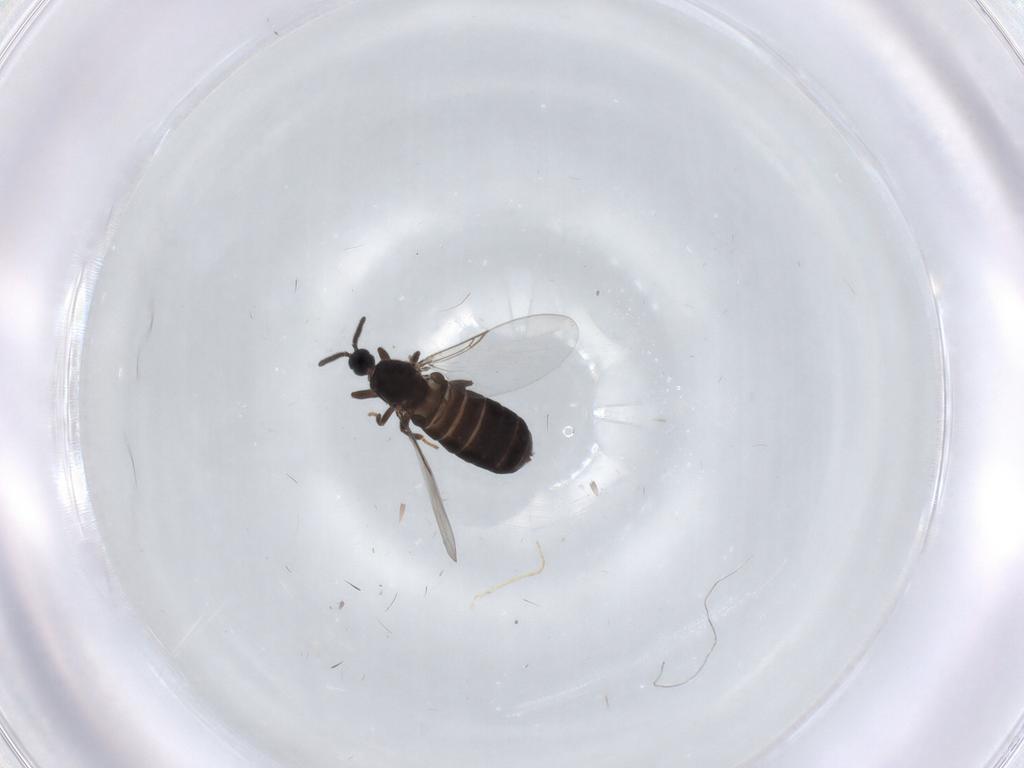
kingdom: Animalia
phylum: Arthropoda
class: Insecta
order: Diptera
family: Scatopsidae
